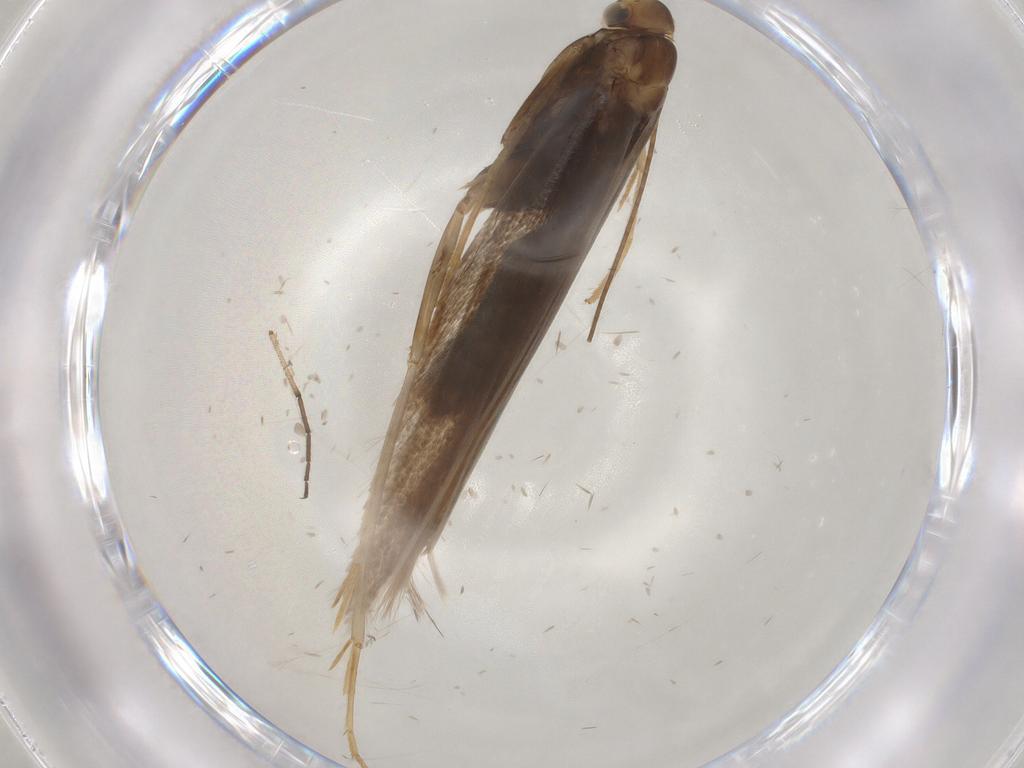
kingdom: Animalia
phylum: Arthropoda
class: Insecta
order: Lepidoptera
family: Coleophoridae
